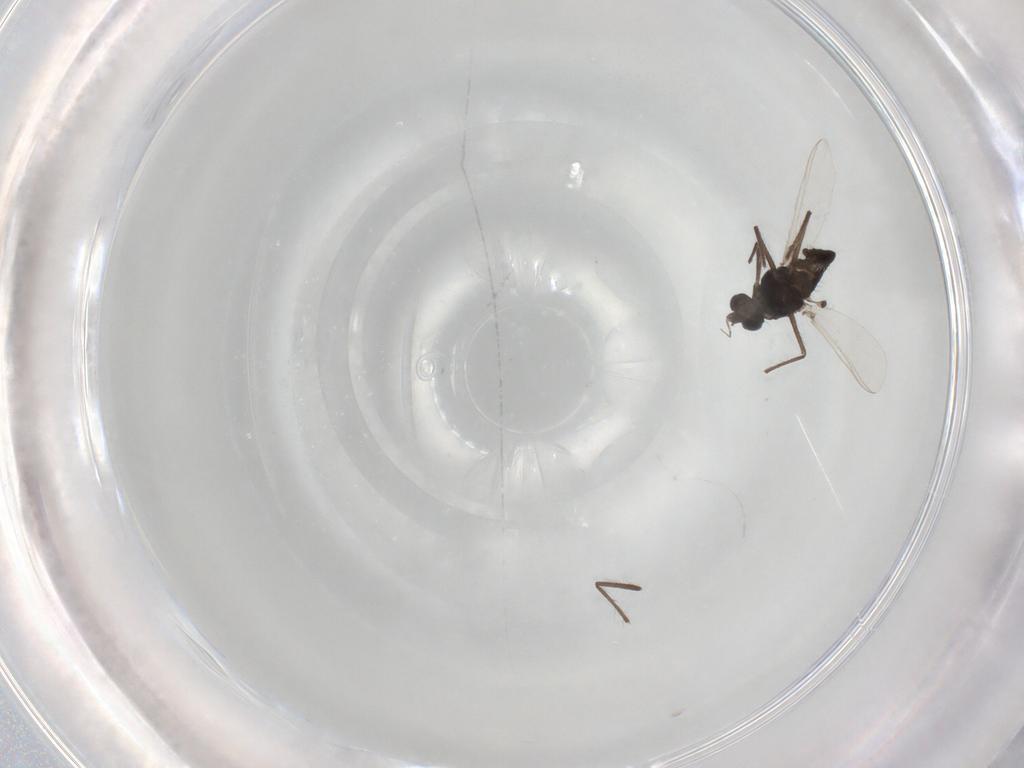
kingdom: Animalia
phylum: Arthropoda
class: Insecta
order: Diptera
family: Chironomidae
